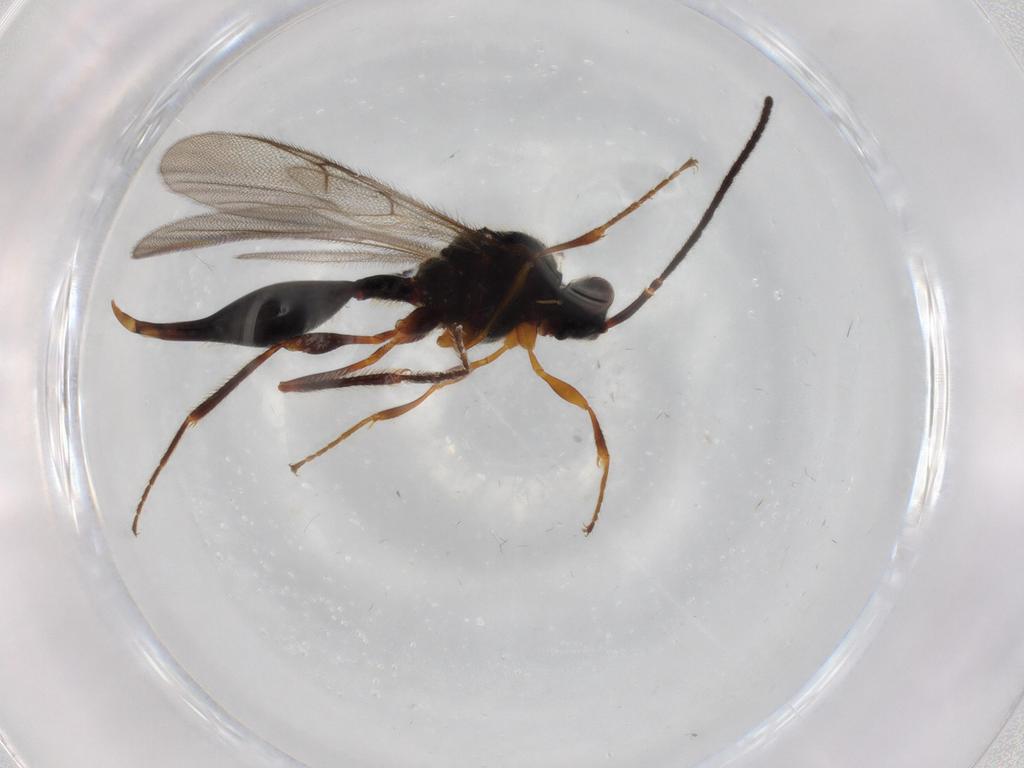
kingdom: Animalia
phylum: Arthropoda
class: Insecta
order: Hymenoptera
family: Diapriidae
